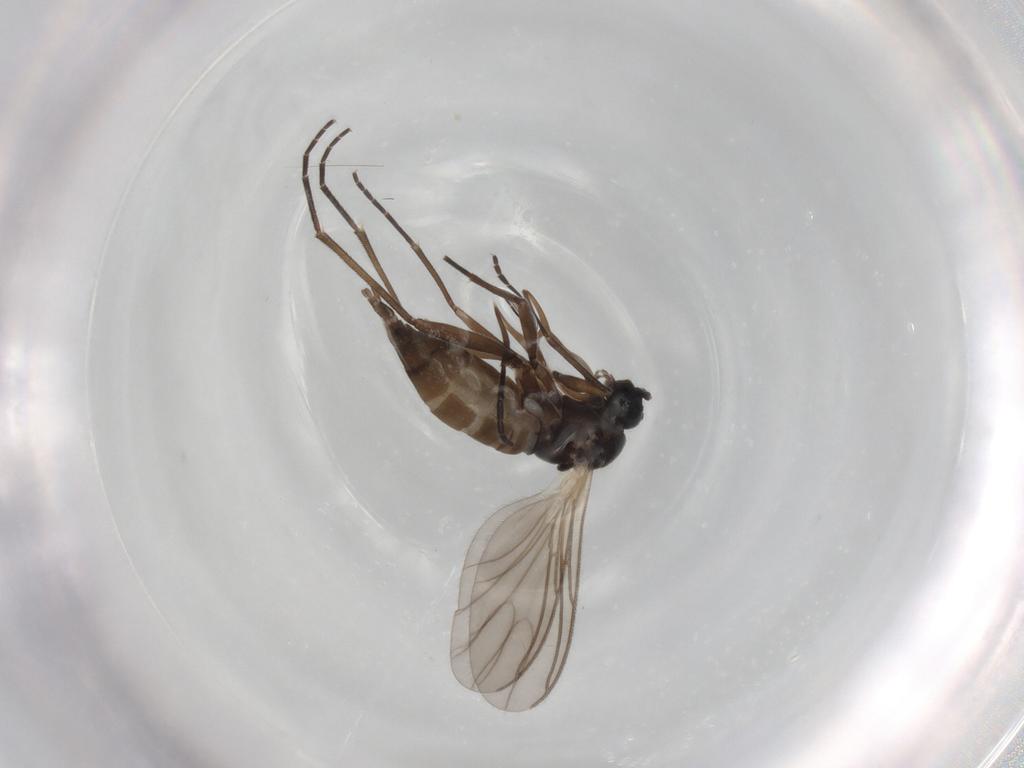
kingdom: Animalia
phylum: Arthropoda
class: Insecta
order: Diptera
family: Sciaridae
